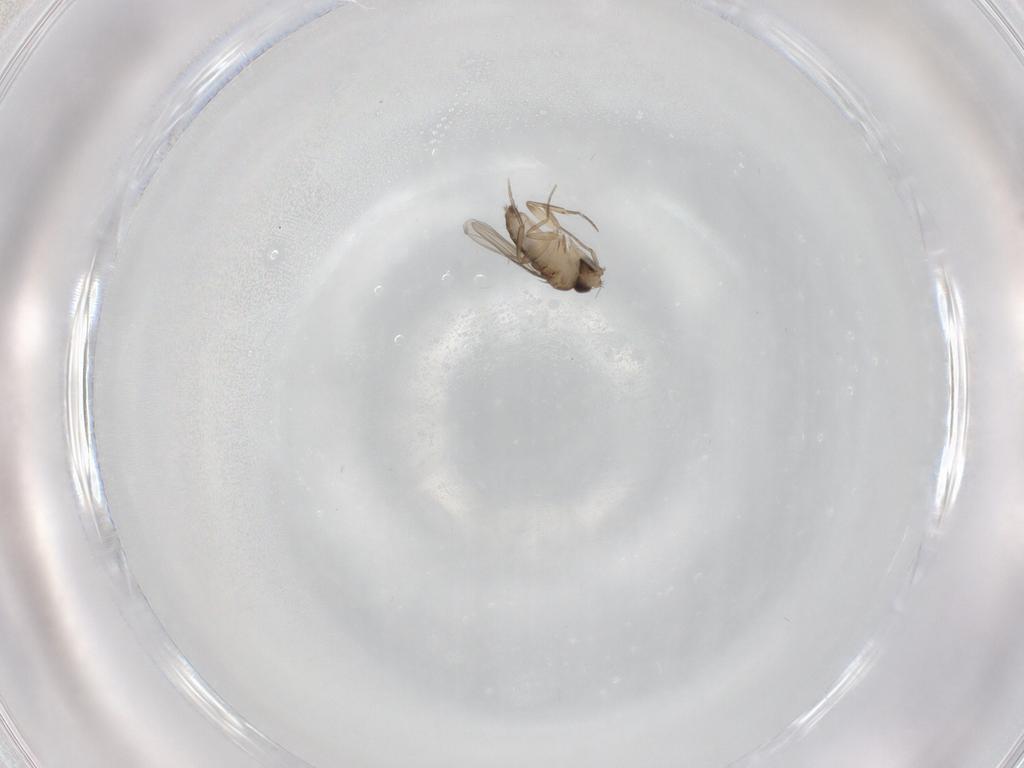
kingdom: Animalia
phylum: Arthropoda
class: Insecta
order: Diptera
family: Phoridae
